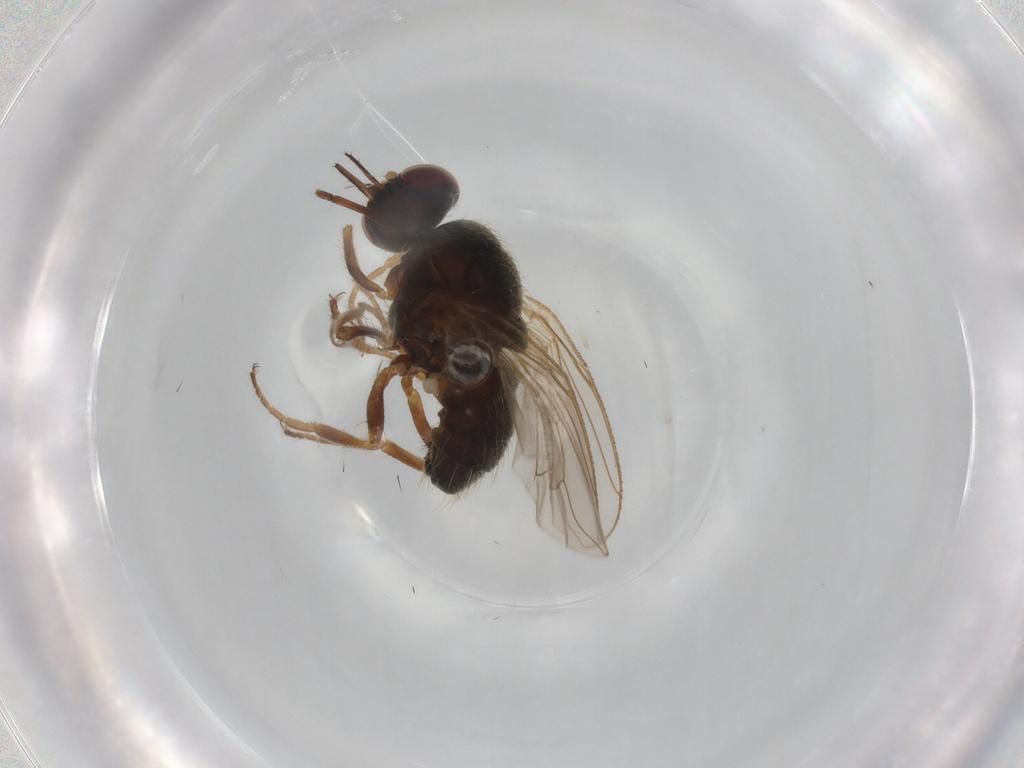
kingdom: Animalia
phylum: Arthropoda
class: Insecta
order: Diptera
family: Muscidae
